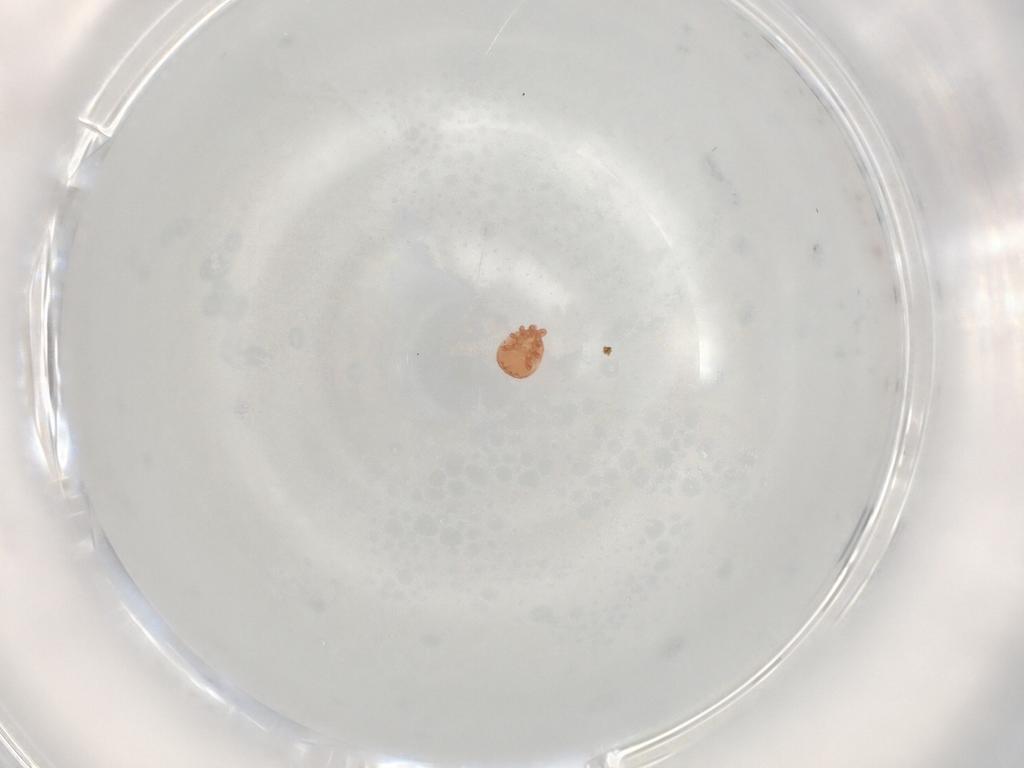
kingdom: Animalia
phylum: Arthropoda
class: Arachnida
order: Mesostigmata
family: Zerconidae
